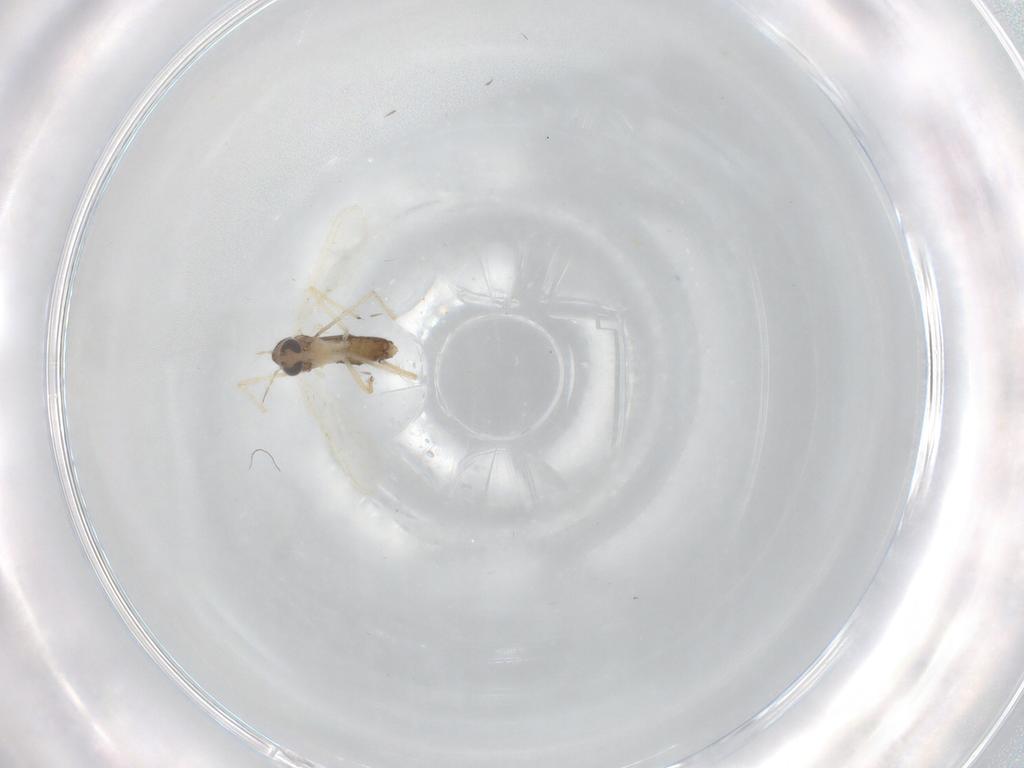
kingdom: Animalia
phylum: Arthropoda
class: Insecta
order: Diptera
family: Chironomidae
